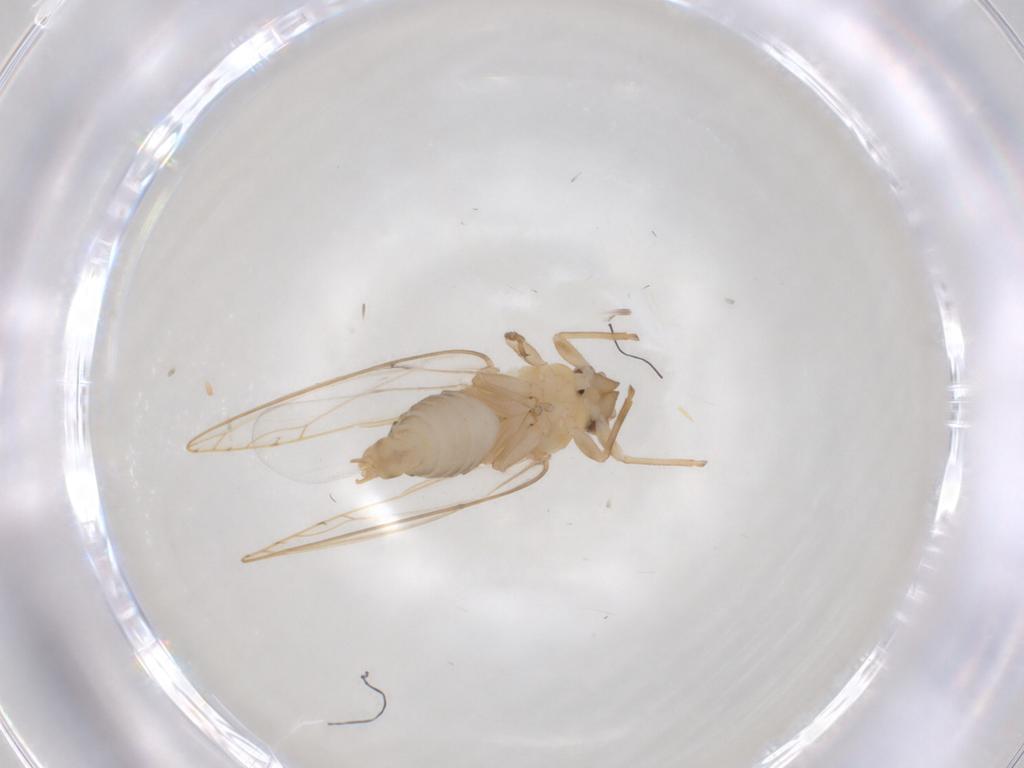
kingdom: Animalia
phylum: Arthropoda
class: Insecta
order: Hemiptera
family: Triozidae
